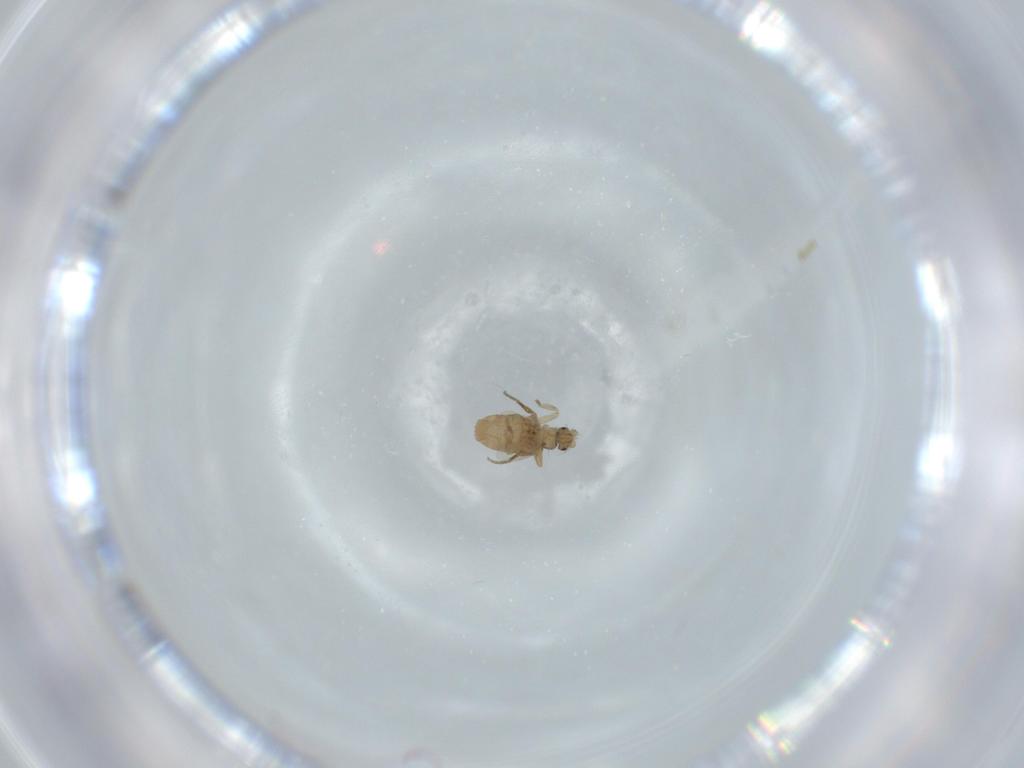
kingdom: Animalia
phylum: Arthropoda
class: Insecta
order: Diptera
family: Phoridae
